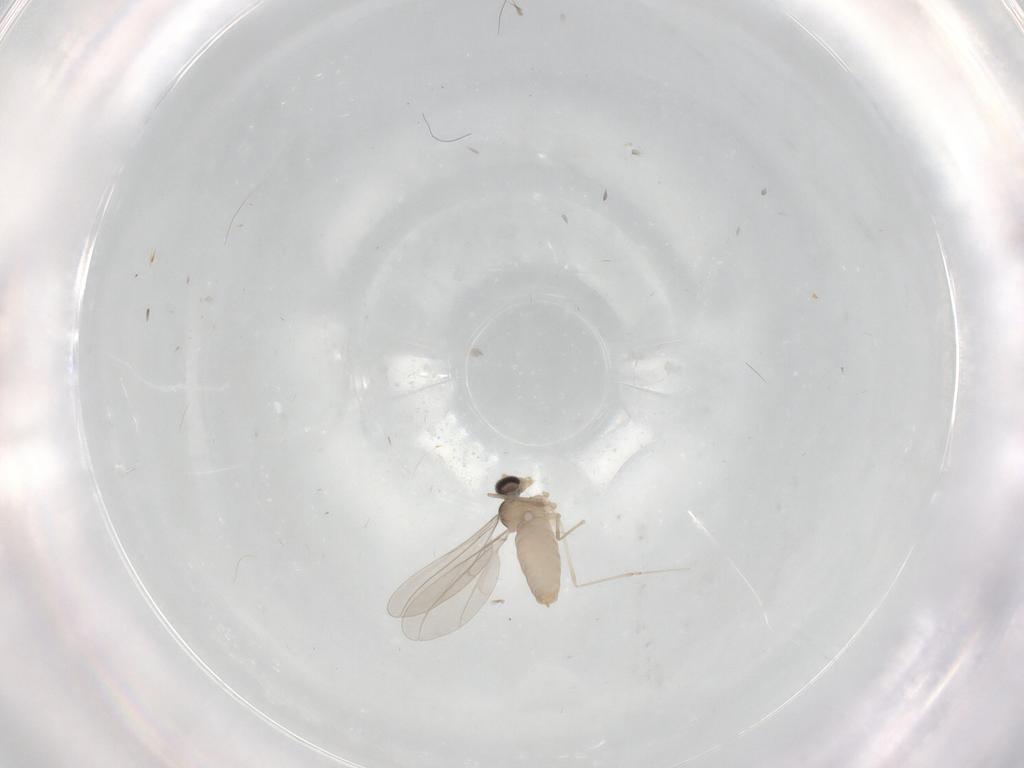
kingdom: Animalia
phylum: Arthropoda
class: Insecta
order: Diptera
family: Cecidomyiidae
